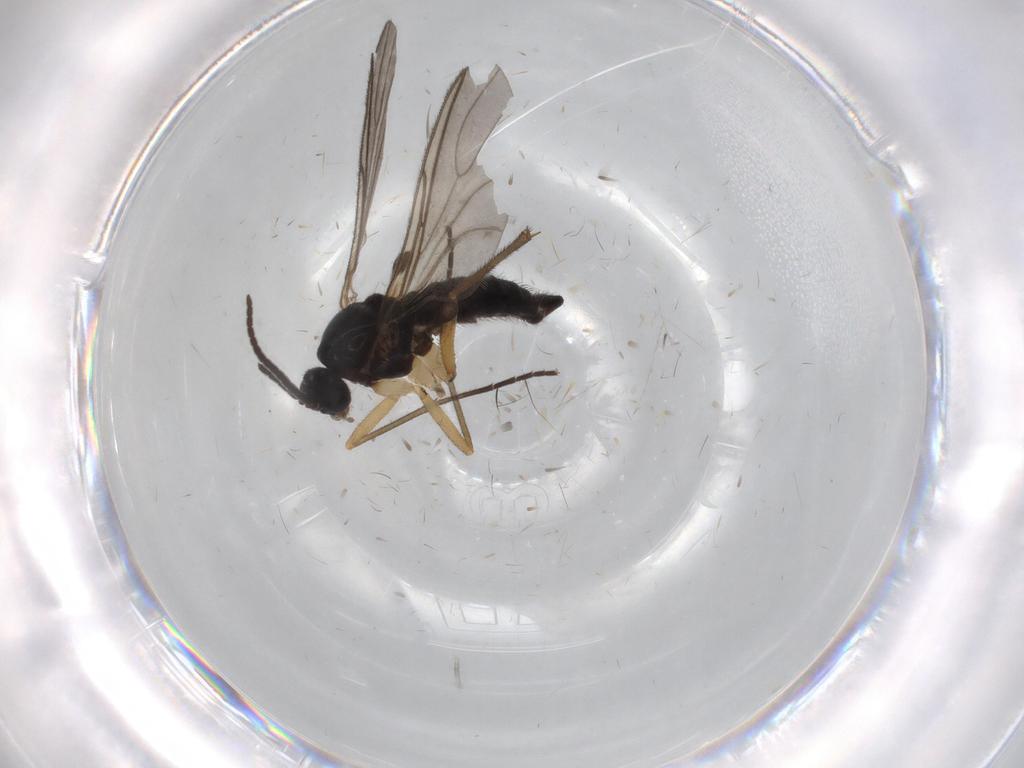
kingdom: Animalia
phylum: Arthropoda
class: Insecta
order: Diptera
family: Sciaridae
